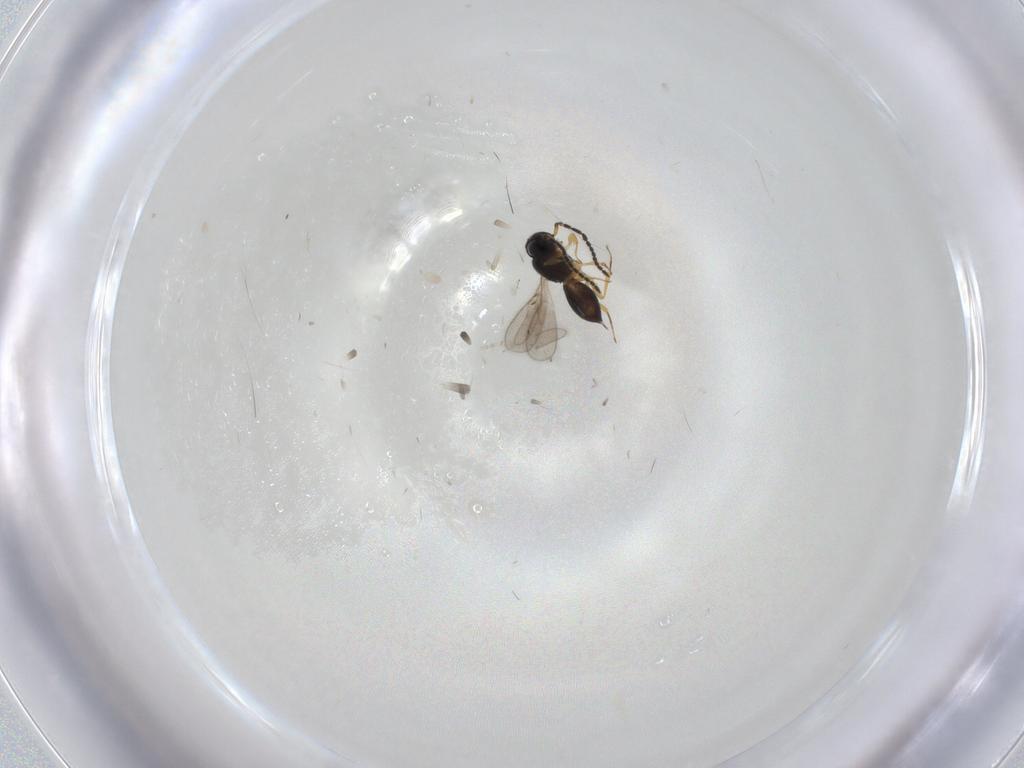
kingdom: Animalia
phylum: Arthropoda
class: Insecta
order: Hymenoptera
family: Scelionidae
